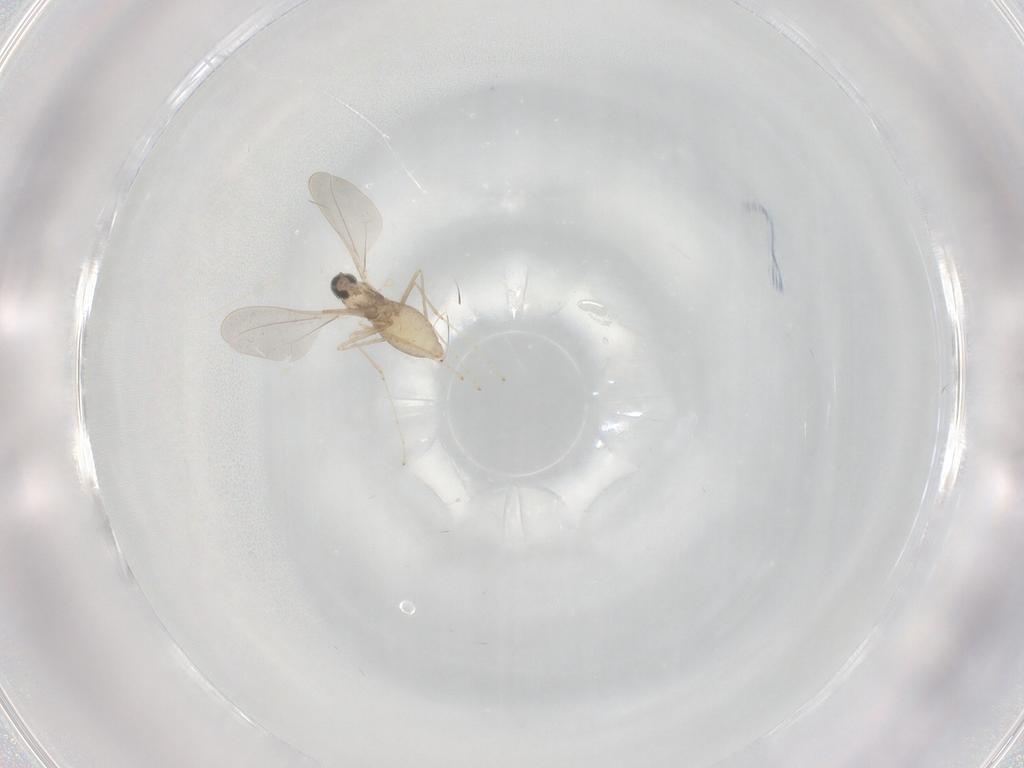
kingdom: Animalia
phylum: Arthropoda
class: Insecta
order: Diptera
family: Cecidomyiidae
